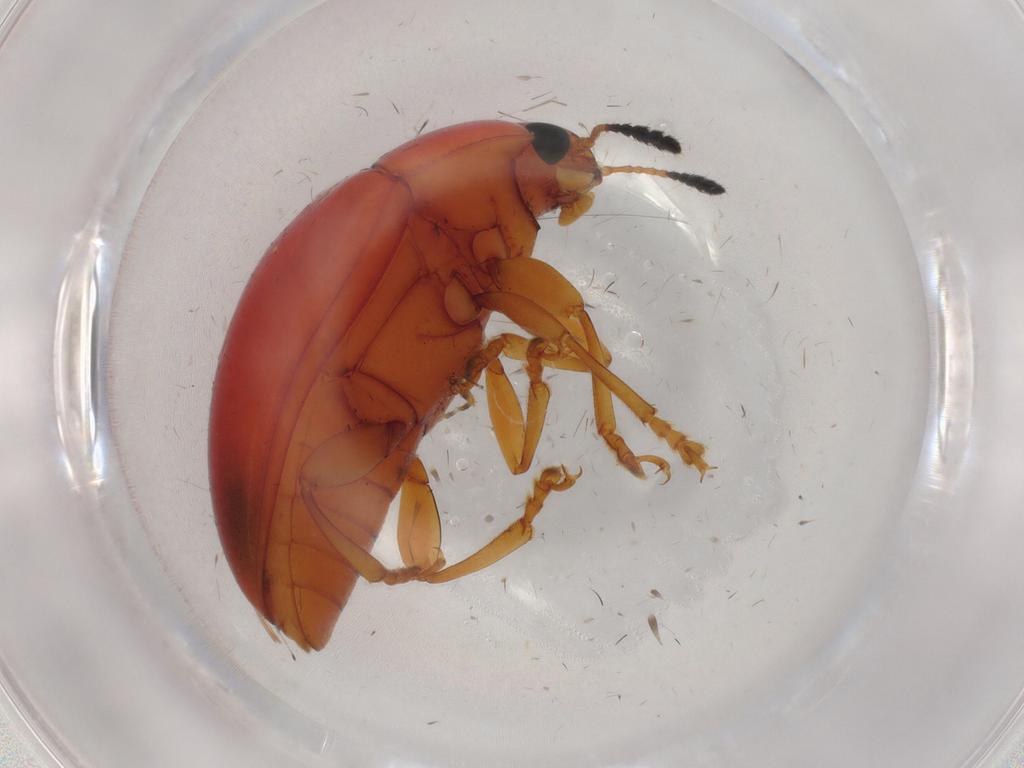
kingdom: Animalia
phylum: Arthropoda
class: Insecta
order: Coleoptera
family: Erotylidae
